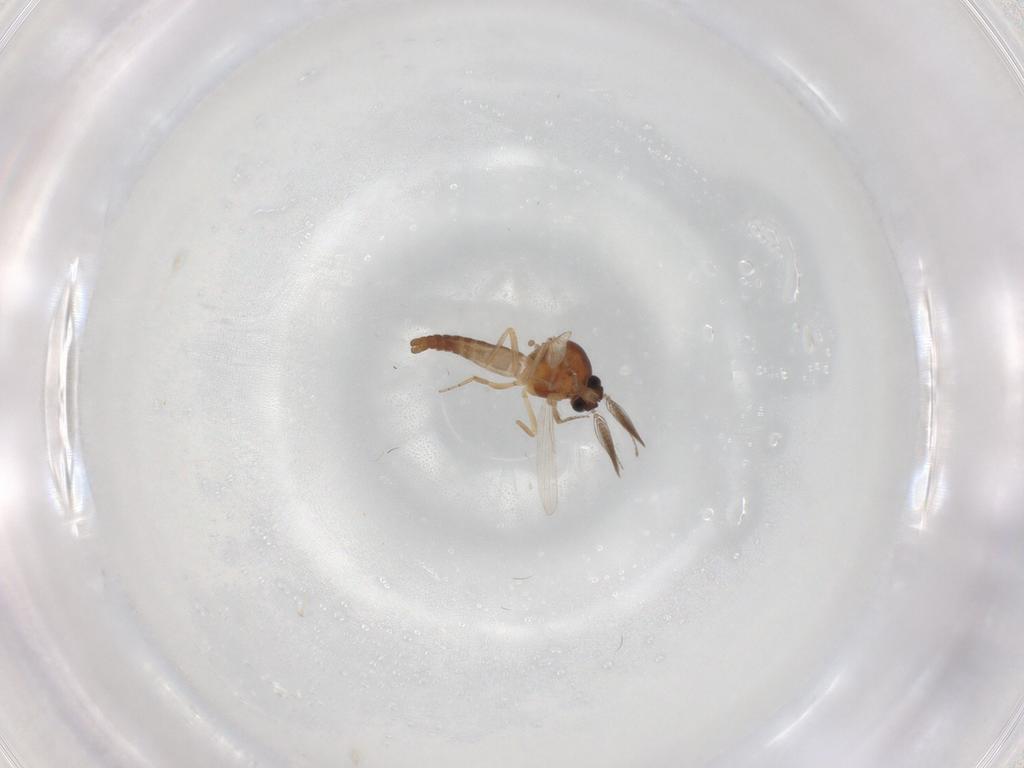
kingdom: Animalia
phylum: Arthropoda
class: Insecta
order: Diptera
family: Ceratopogonidae
